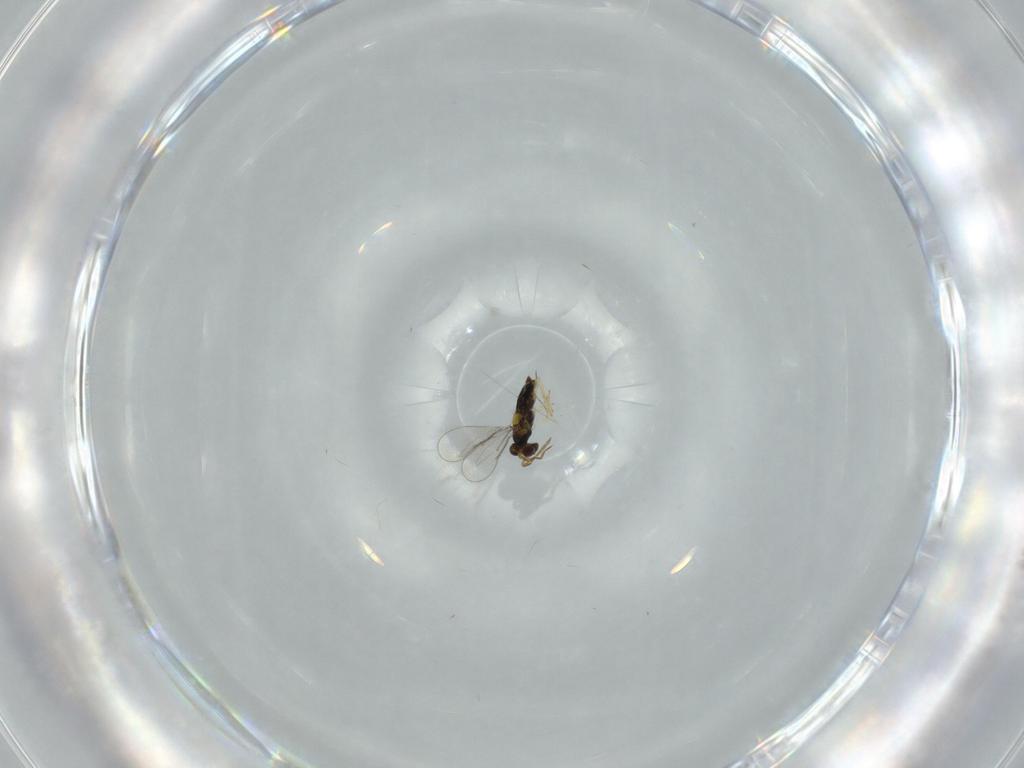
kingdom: Animalia
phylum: Arthropoda
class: Insecta
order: Hymenoptera
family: Aphelinidae
